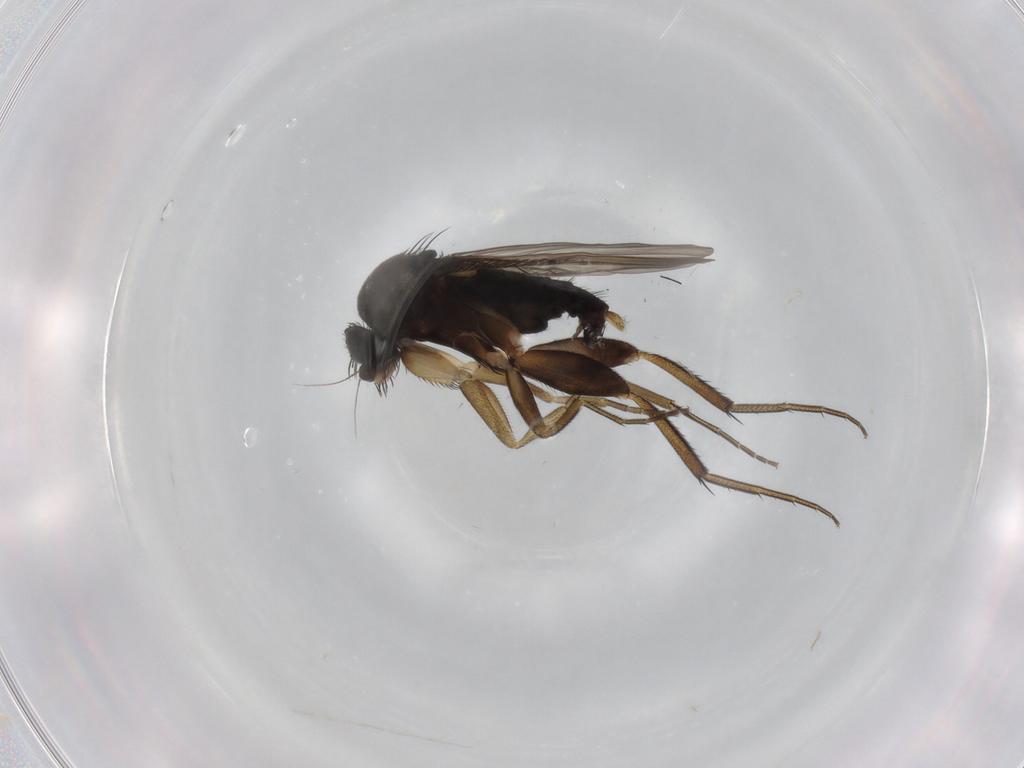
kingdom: Animalia
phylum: Arthropoda
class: Insecta
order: Diptera
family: Phoridae
